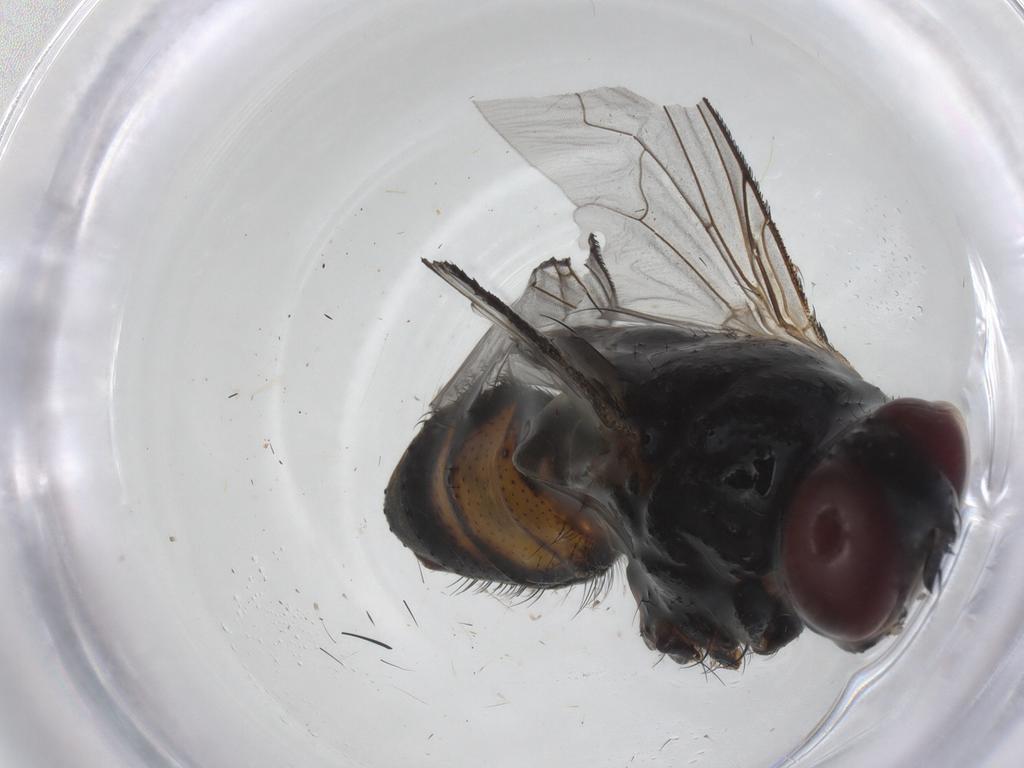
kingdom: Animalia
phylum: Arthropoda
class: Insecta
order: Diptera
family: Tachinidae
